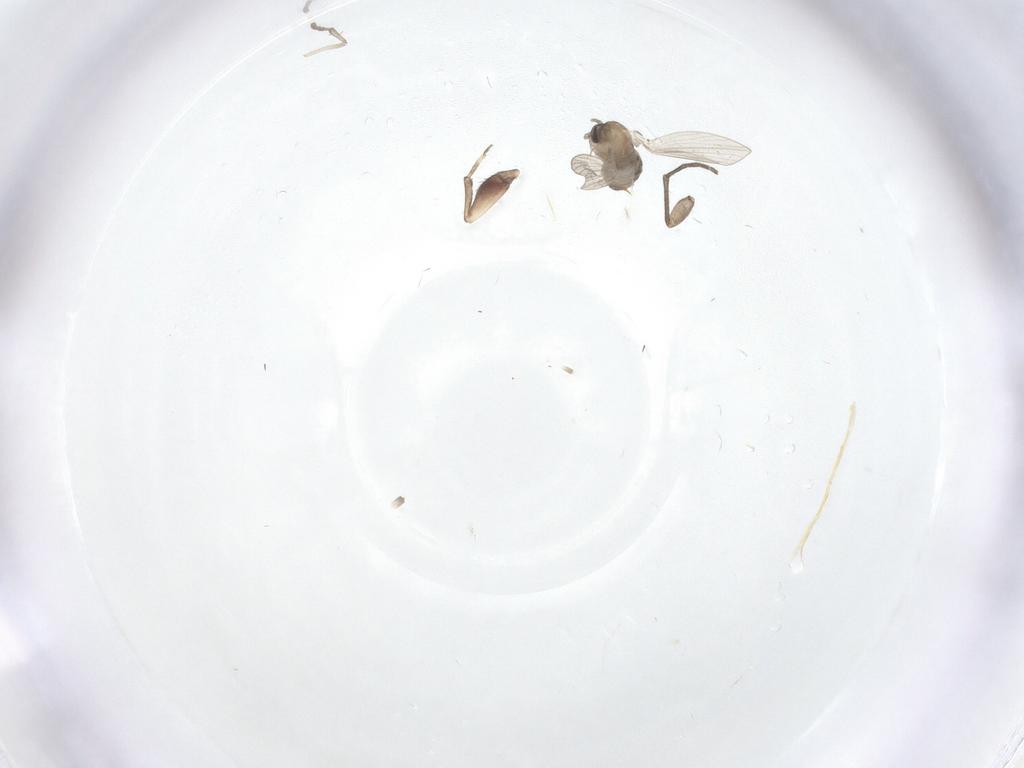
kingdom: Animalia
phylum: Arthropoda
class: Insecta
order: Diptera
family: Psychodidae
